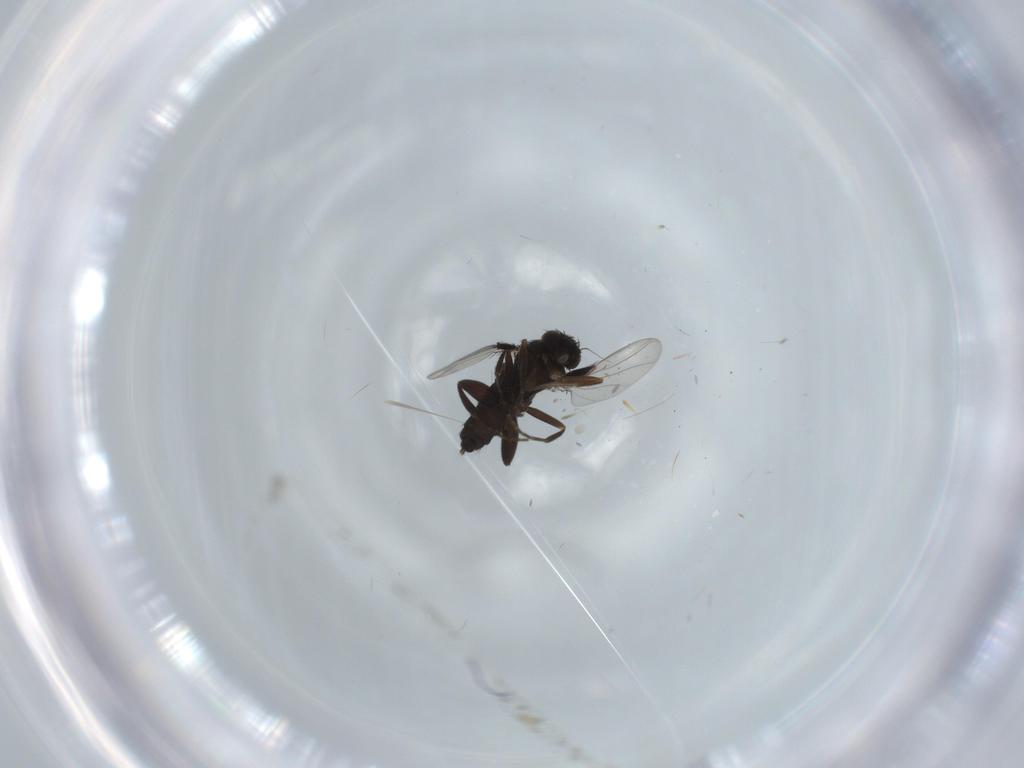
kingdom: Animalia
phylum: Arthropoda
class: Insecta
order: Diptera
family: Phoridae
